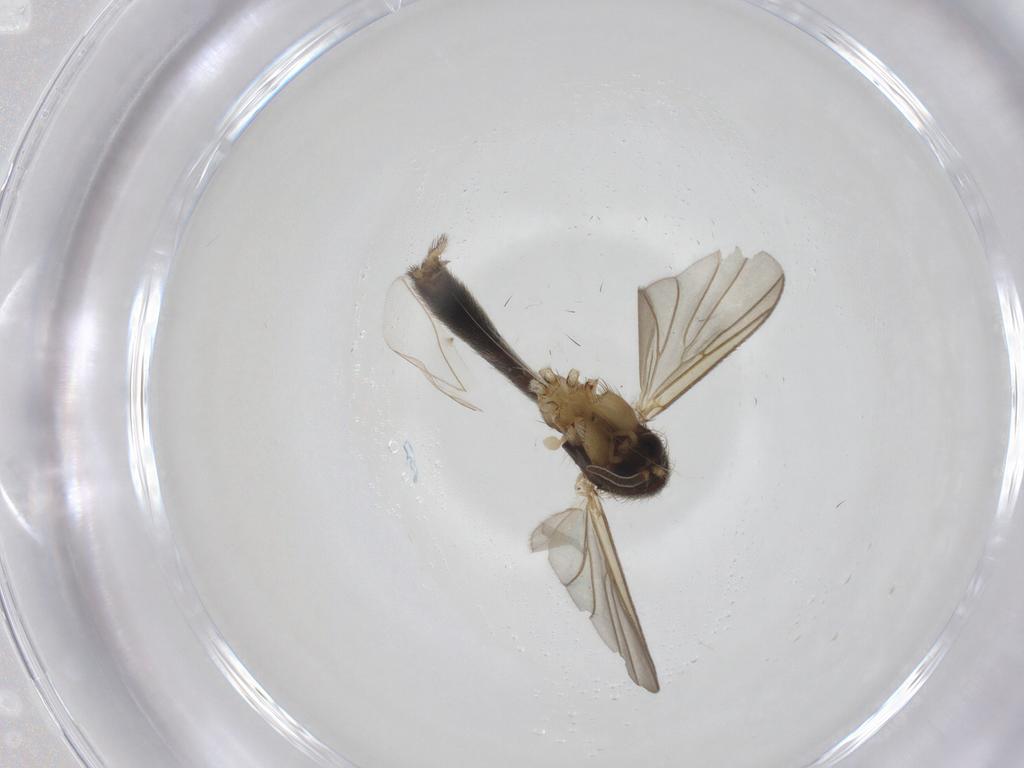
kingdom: Animalia
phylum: Arthropoda
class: Insecta
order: Diptera
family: Mycetophilidae
